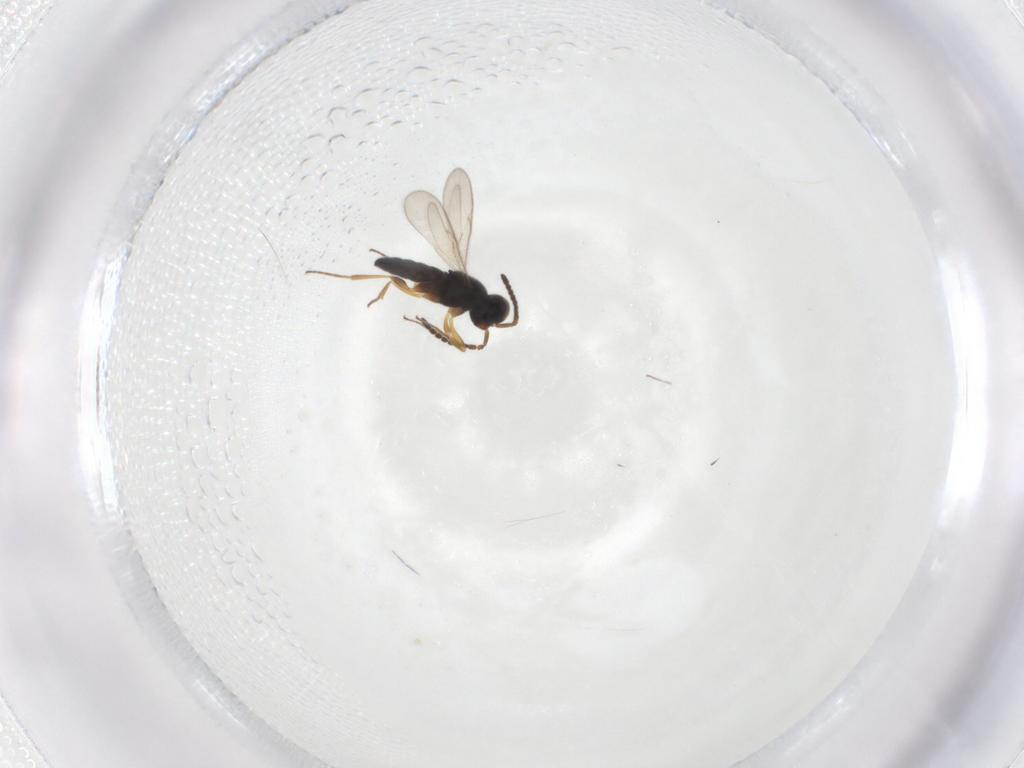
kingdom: Animalia
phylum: Arthropoda
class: Insecta
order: Hymenoptera
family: Scelionidae
